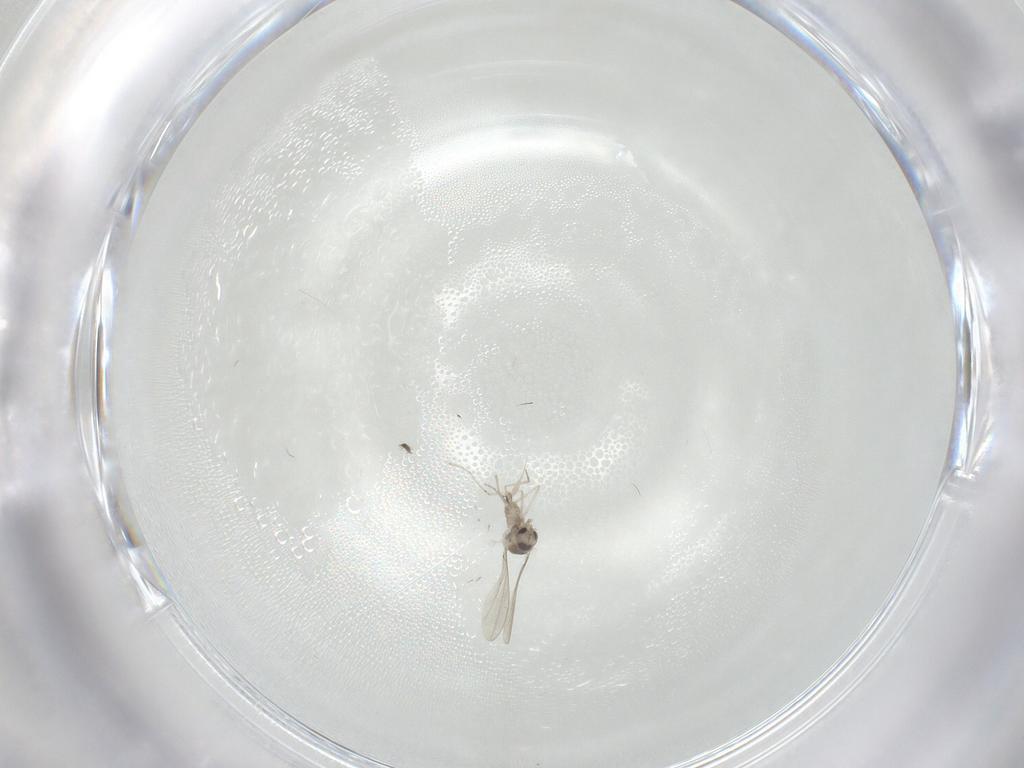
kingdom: Animalia
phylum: Arthropoda
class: Insecta
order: Diptera
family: Cecidomyiidae
